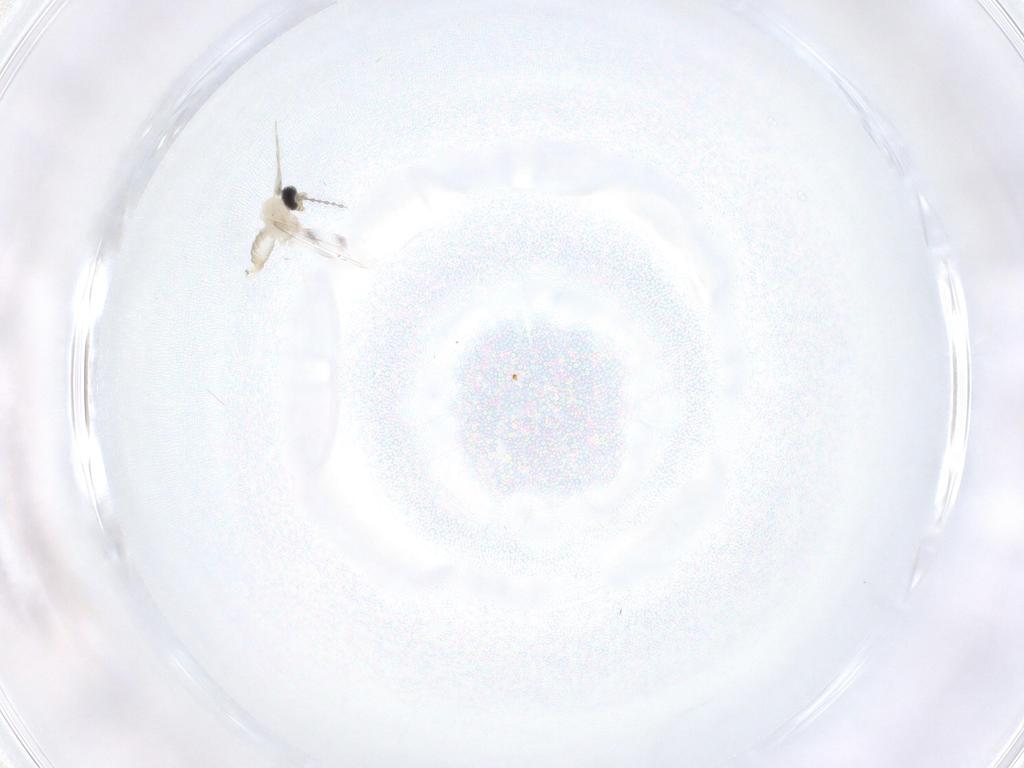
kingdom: Animalia
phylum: Arthropoda
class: Insecta
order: Diptera
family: Cecidomyiidae
